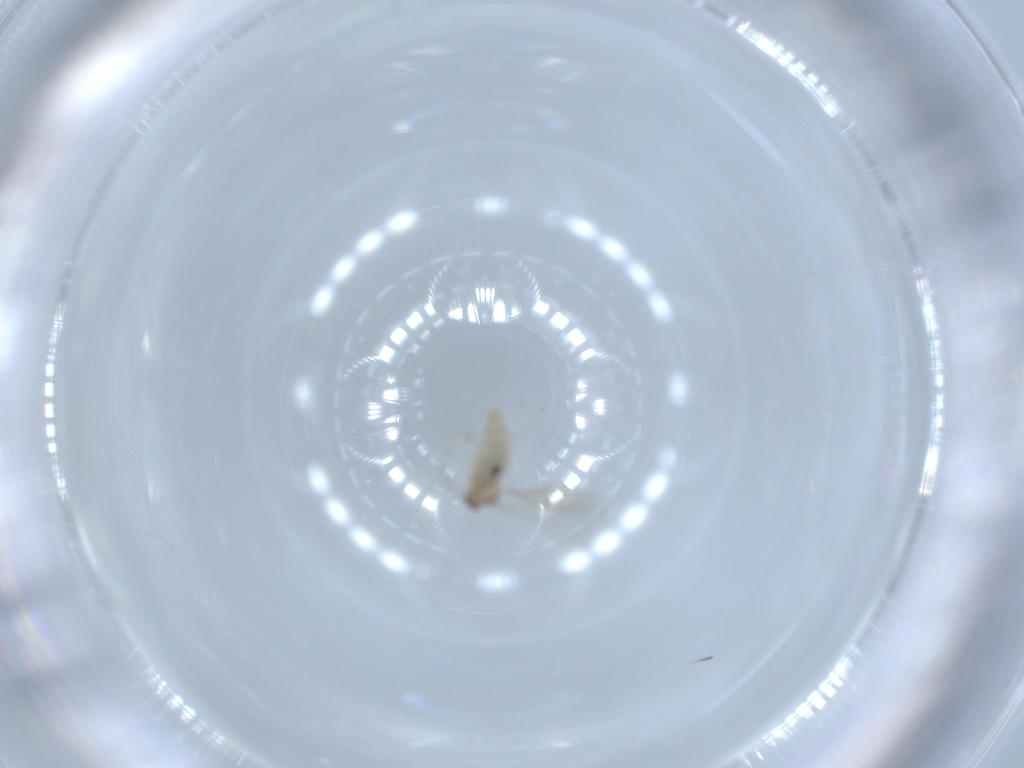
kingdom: Animalia
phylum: Arthropoda
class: Insecta
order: Diptera
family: Cecidomyiidae
